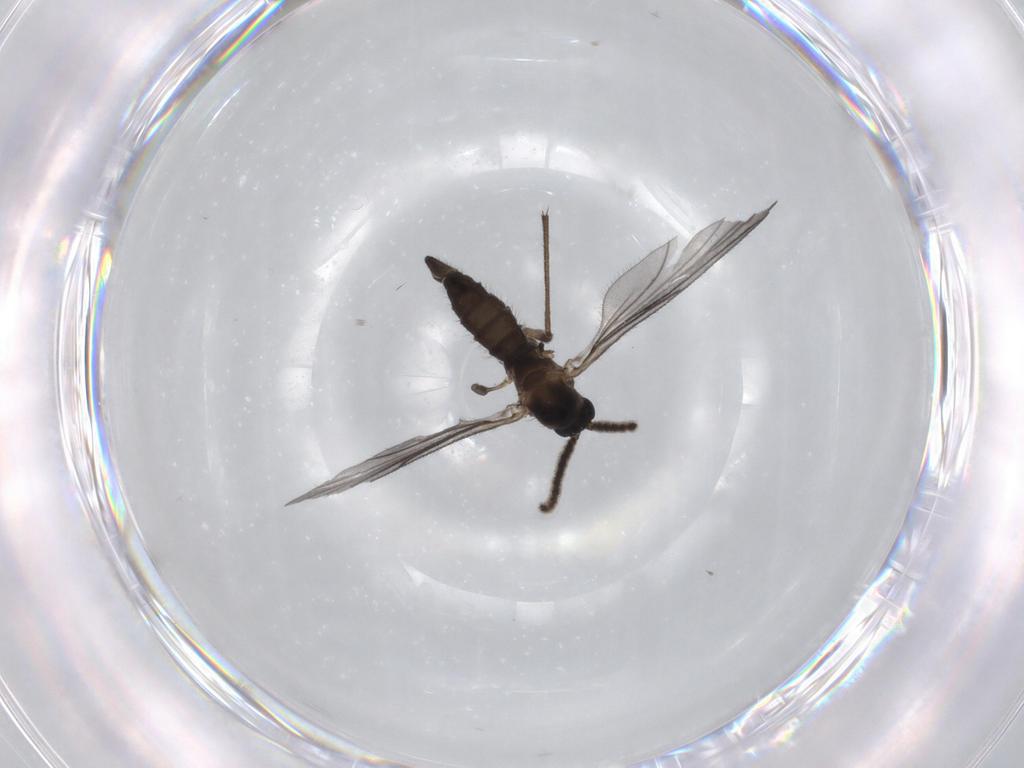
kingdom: Animalia
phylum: Arthropoda
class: Insecta
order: Diptera
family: Sciaridae
